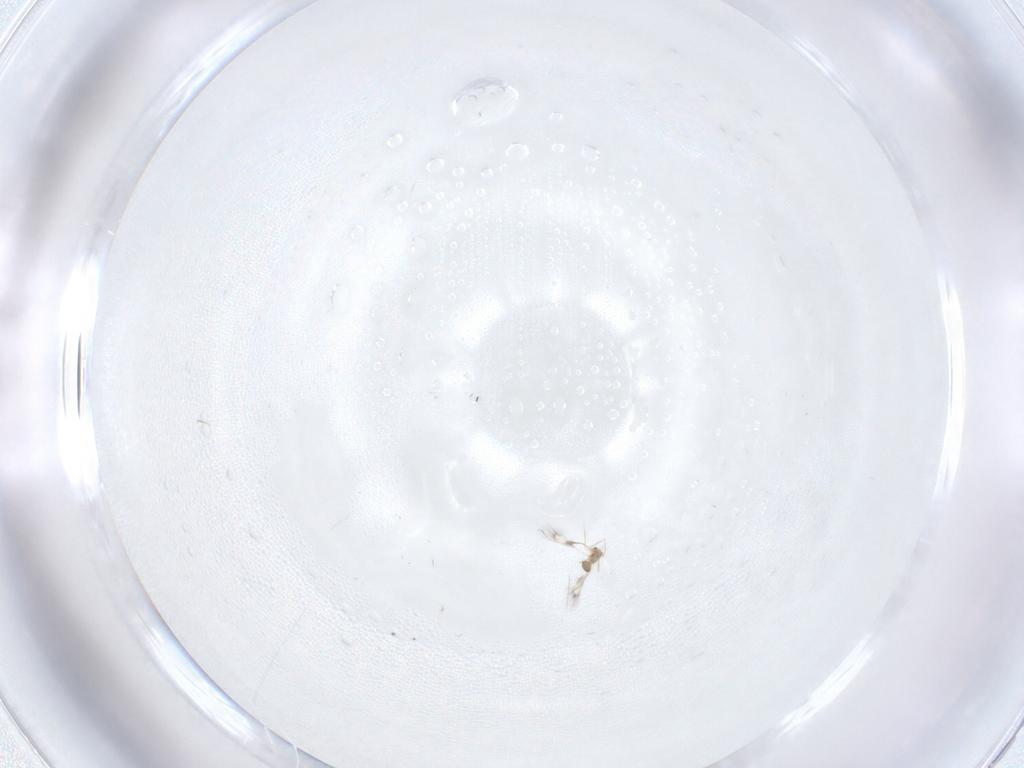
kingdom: Animalia
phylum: Arthropoda
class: Insecta
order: Hymenoptera
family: Mymarommatidae
